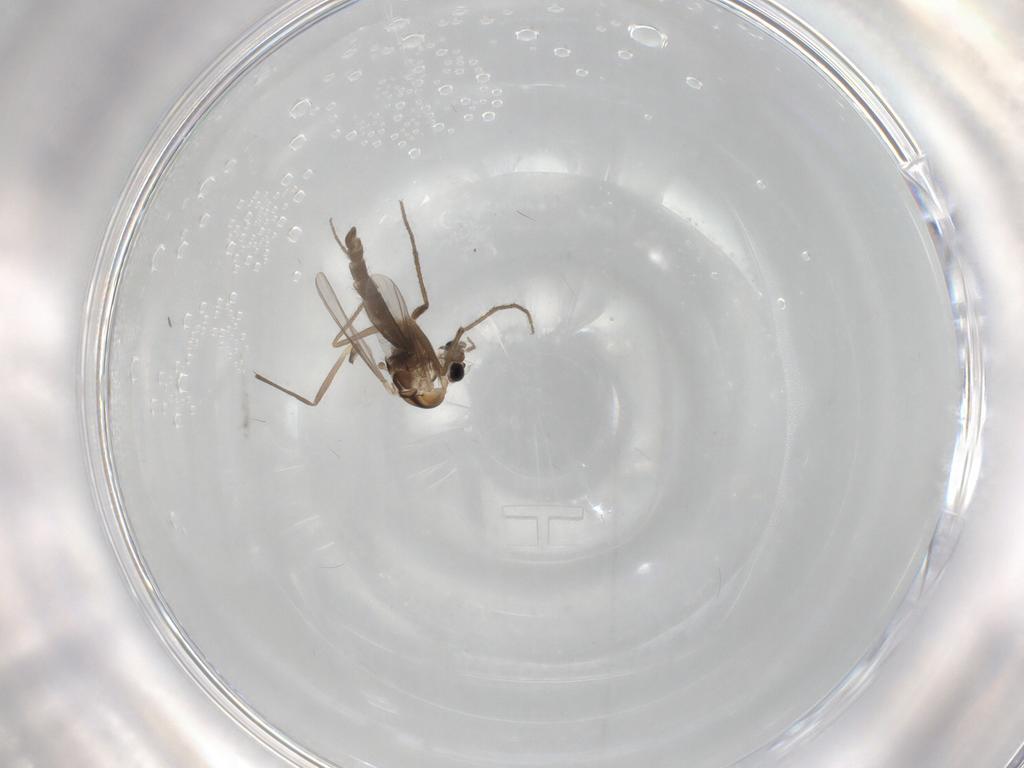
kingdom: Animalia
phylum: Arthropoda
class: Insecta
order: Diptera
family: Chironomidae
